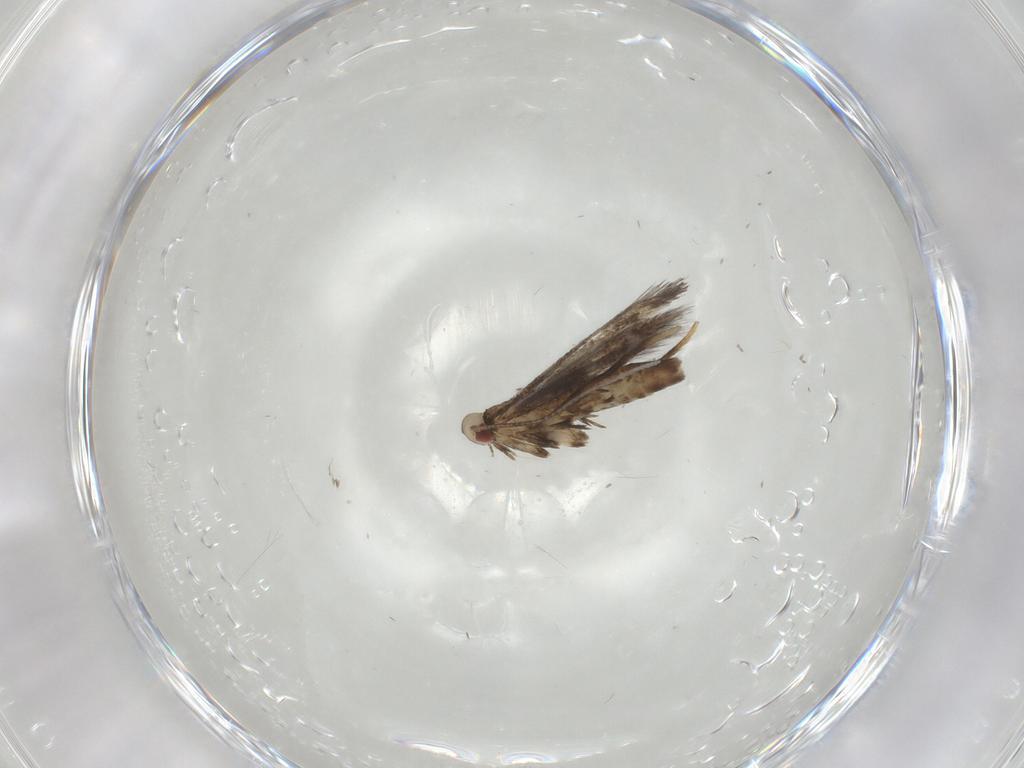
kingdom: Animalia
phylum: Arthropoda
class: Insecta
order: Lepidoptera
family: Gracillariidae
